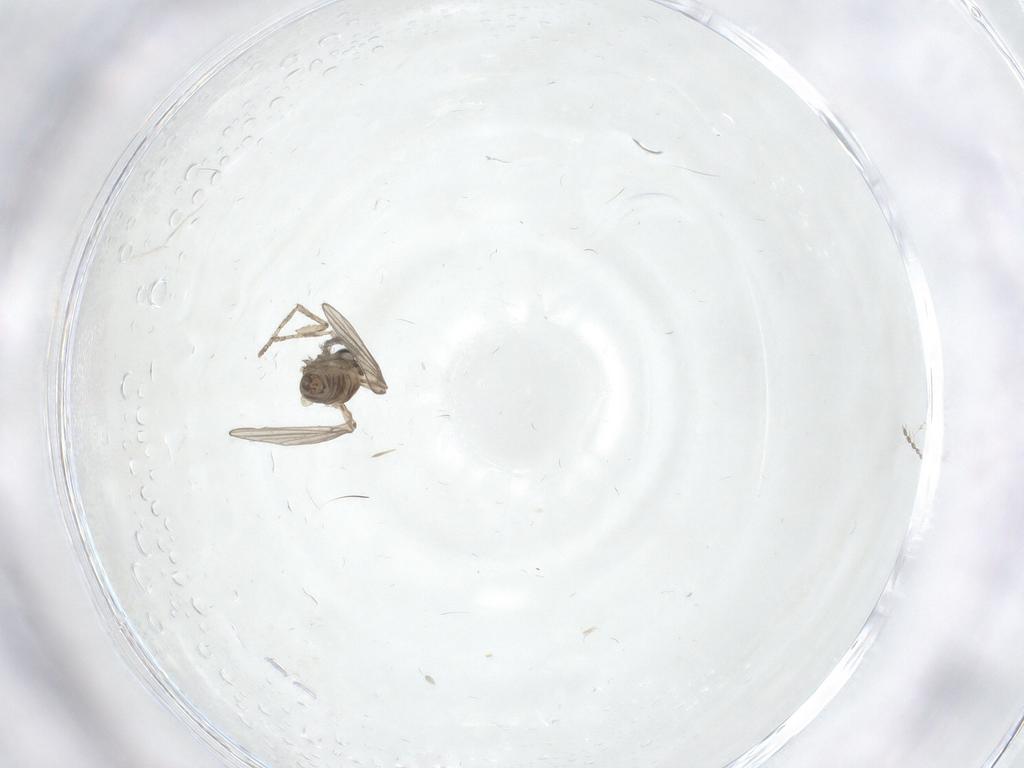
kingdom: Animalia
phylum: Arthropoda
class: Insecta
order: Diptera
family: Psychodidae
